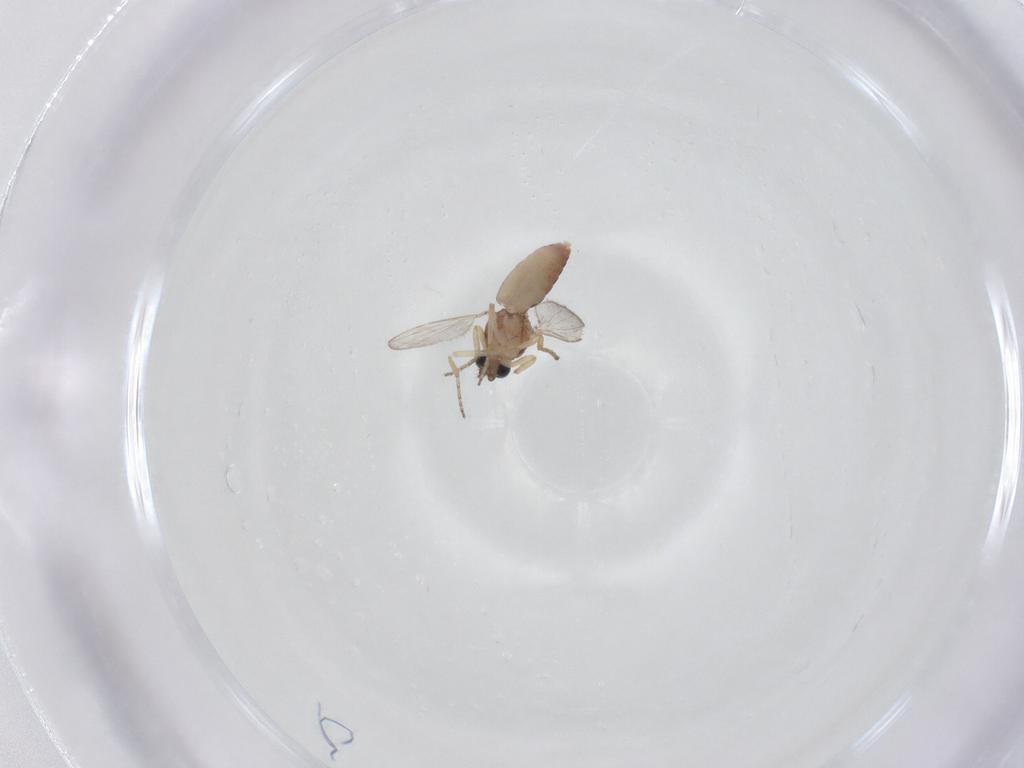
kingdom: Animalia
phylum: Arthropoda
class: Insecta
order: Diptera
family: Ceratopogonidae
